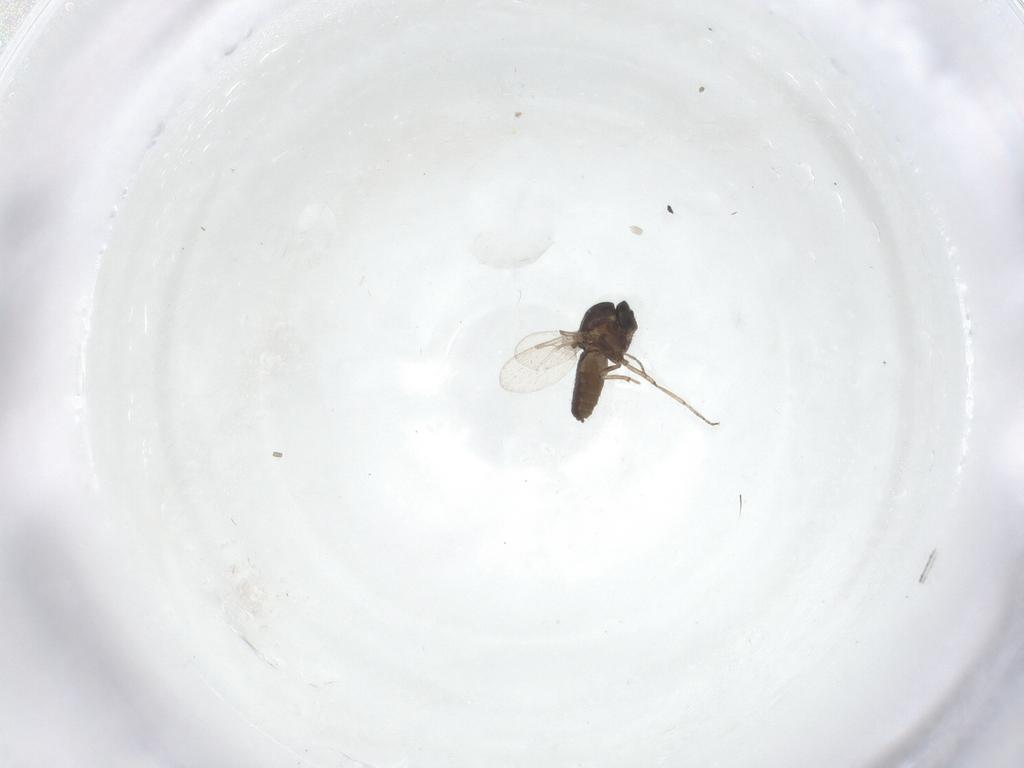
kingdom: Animalia
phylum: Arthropoda
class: Insecta
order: Diptera
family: Ceratopogonidae
